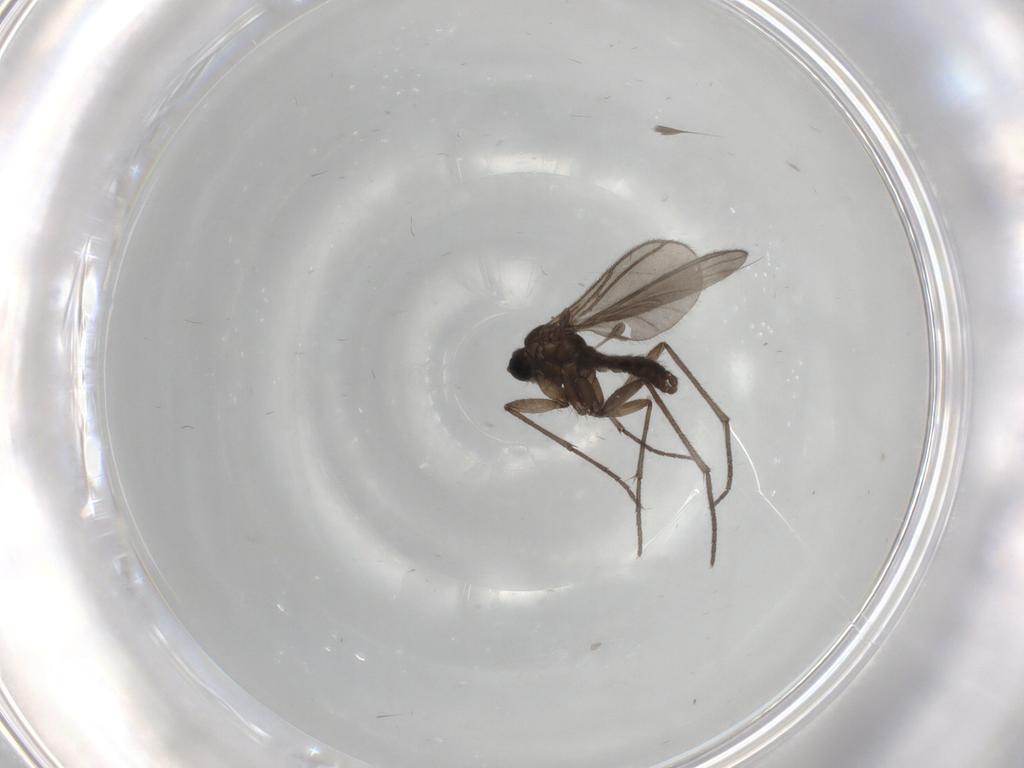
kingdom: Animalia
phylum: Arthropoda
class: Insecta
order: Diptera
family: Sciaridae
